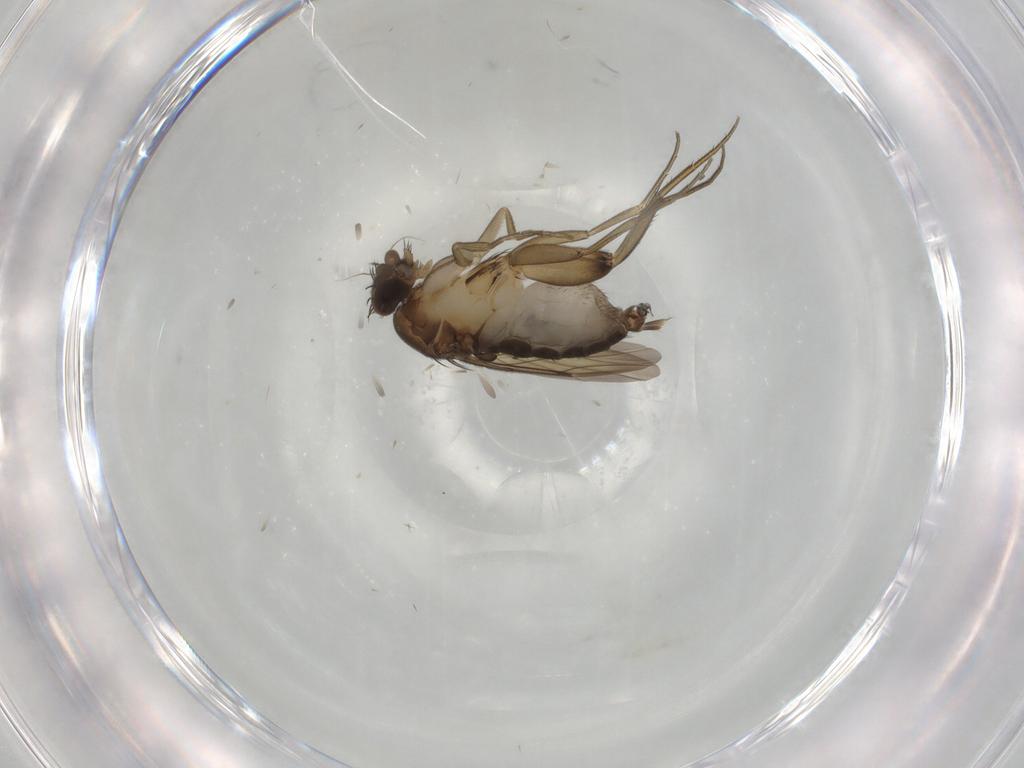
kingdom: Animalia
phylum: Arthropoda
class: Insecta
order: Diptera
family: Phoridae
